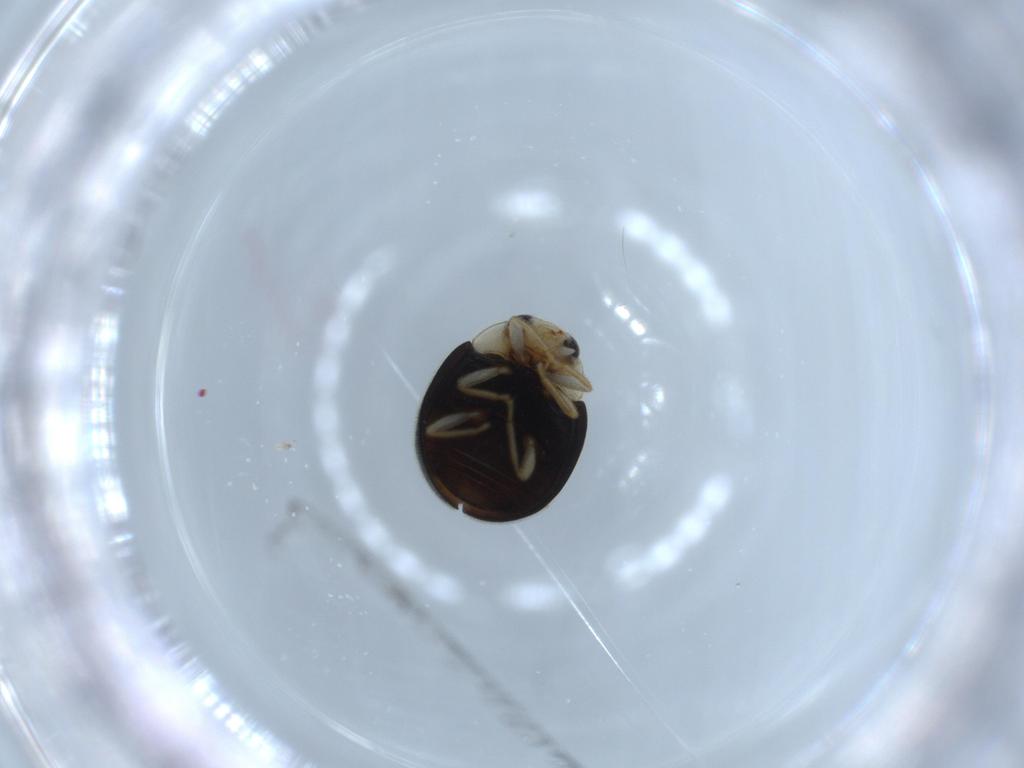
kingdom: Animalia
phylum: Arthropoda
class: Insecta
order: Coleoptera
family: Coccinellidae
